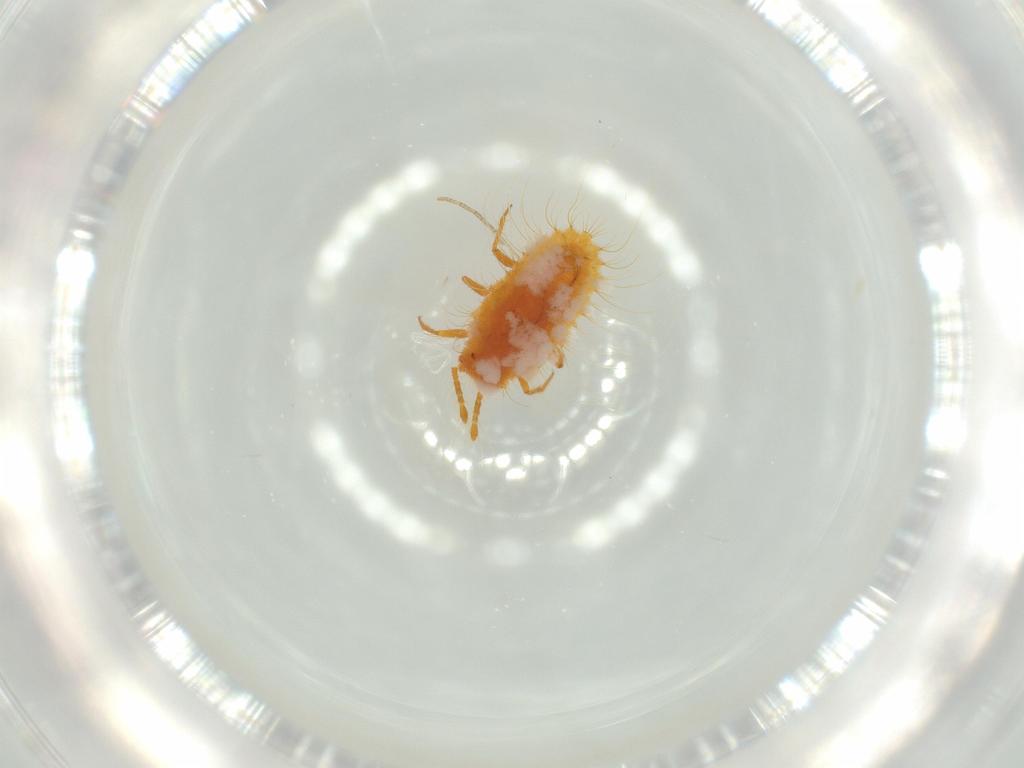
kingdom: Animalia
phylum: Arthropoda
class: Insecta
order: Hemiptera
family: Coccoidea_incertae_sedis
